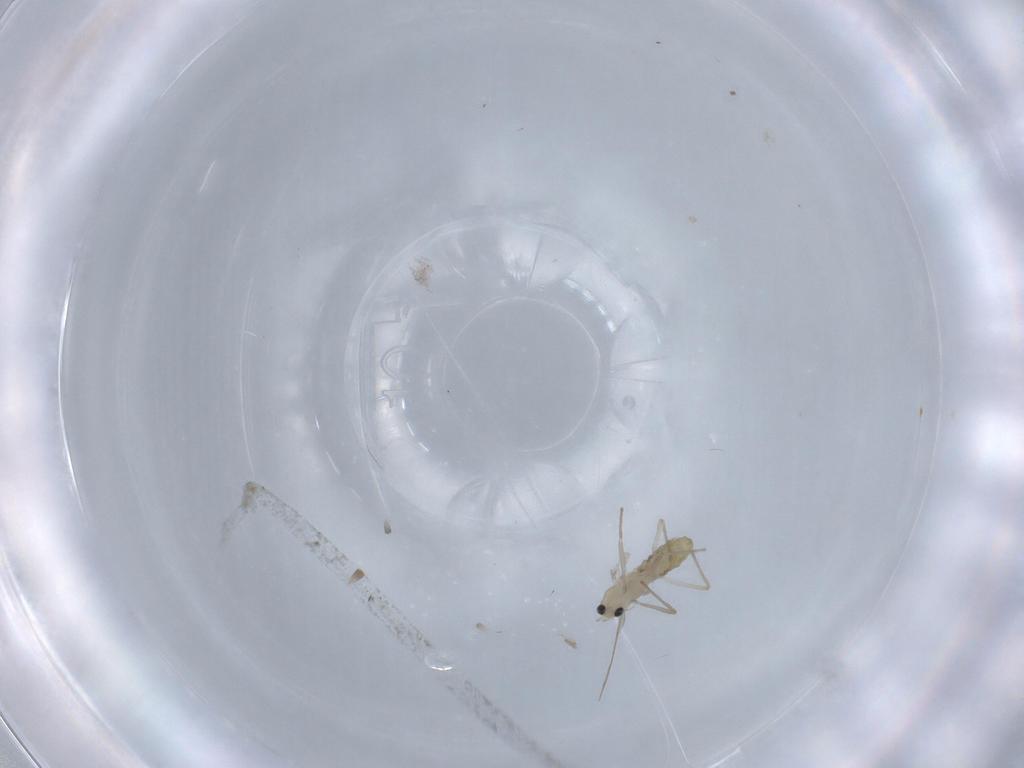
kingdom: Animalia
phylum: Arthropoda
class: Insecta
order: Diptera
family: Chironomidae
